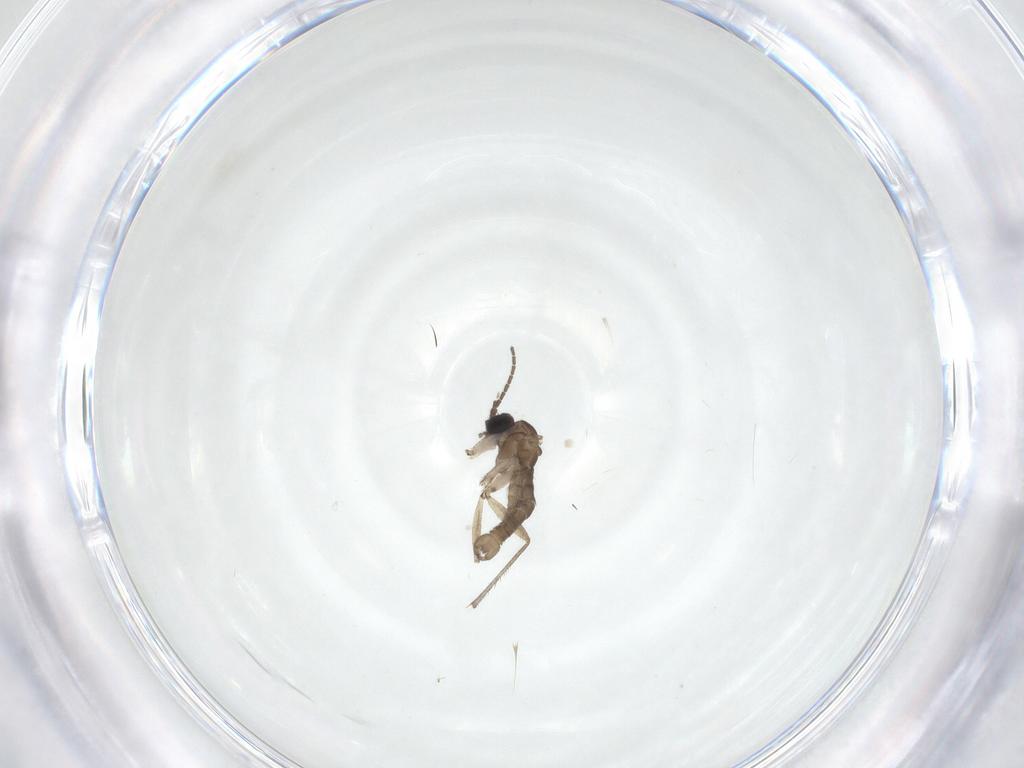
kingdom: Animalia
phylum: Arthropoda
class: Insecta
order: Diptera
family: Sciaridae
